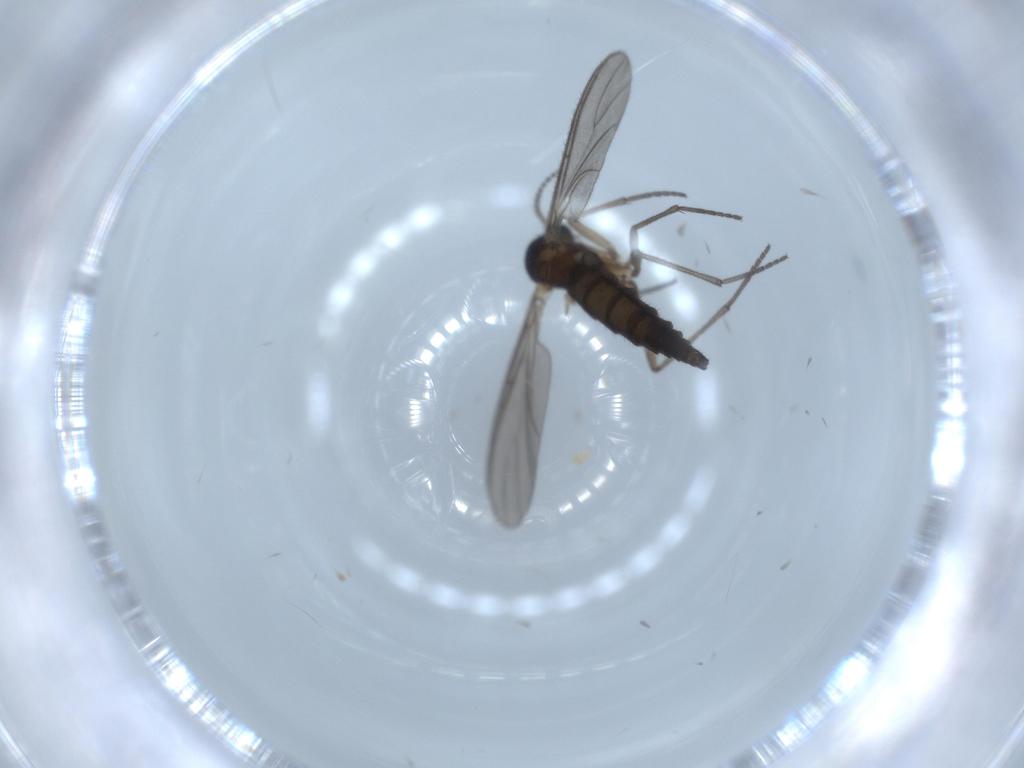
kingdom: Animalia
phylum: Arthropoda
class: Insecta
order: Diptera
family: Sciaridae
